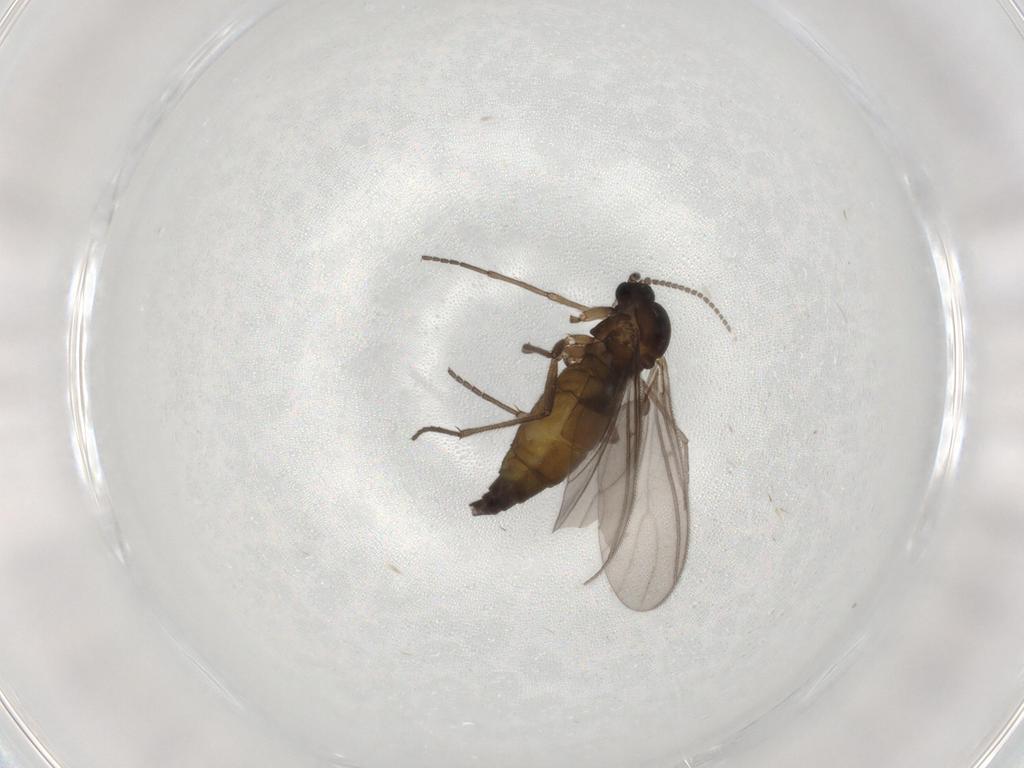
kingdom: Animalia
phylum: Arthropoda
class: Insecta
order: Diptera
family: Sciaridae
